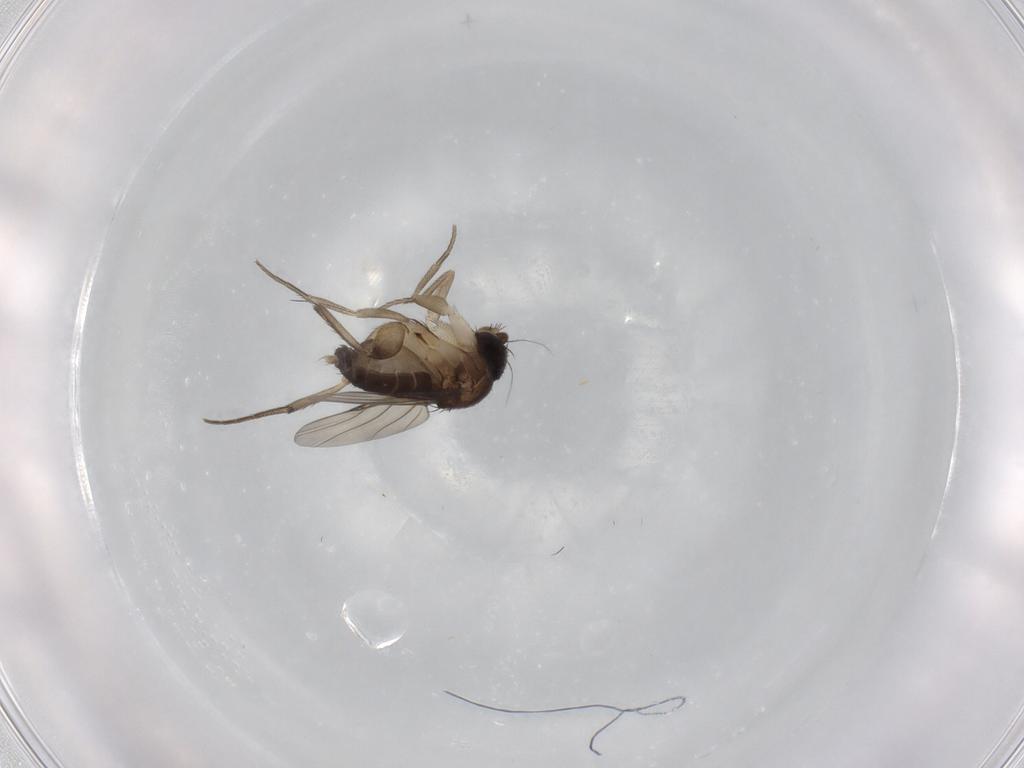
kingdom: Animalia
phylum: Arthropoda
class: Insecta
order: Diptera
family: Phoridae
